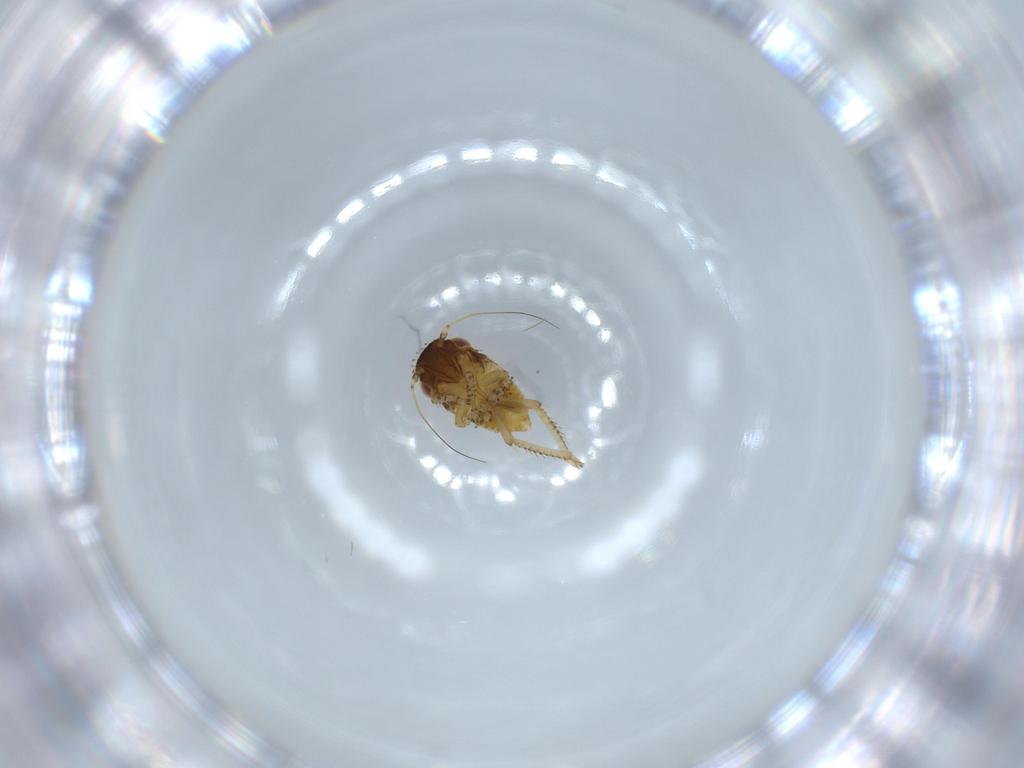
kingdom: Animalia
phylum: Arthropoda
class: Insecta
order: Hemiptera
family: Cicadellidae
